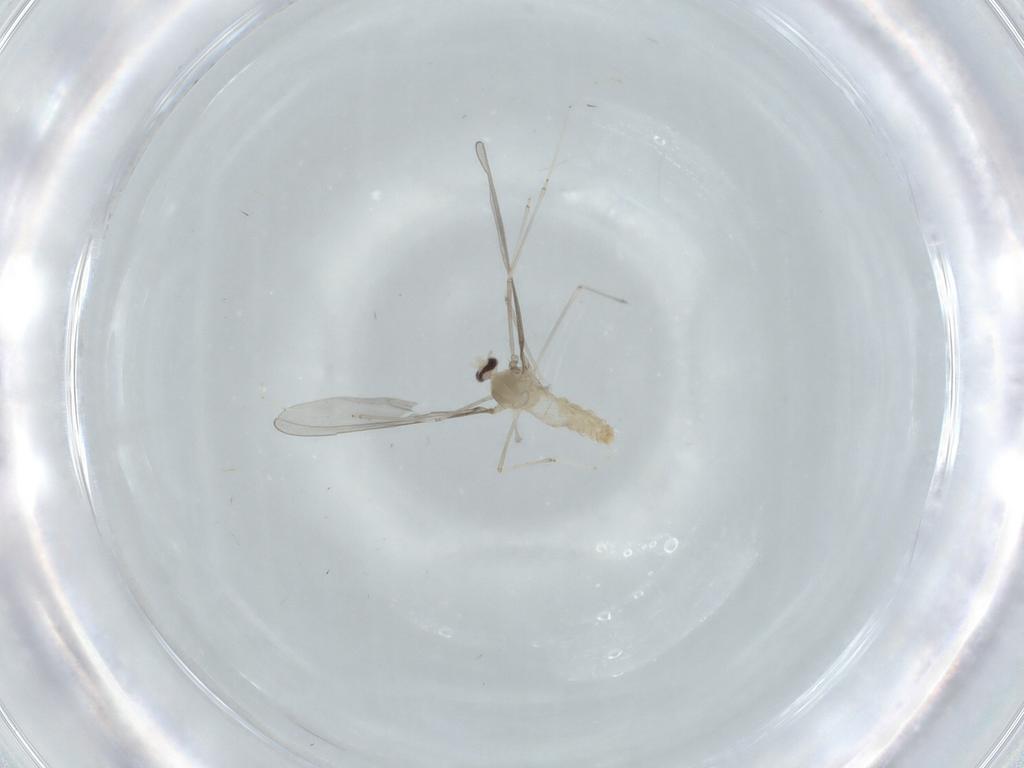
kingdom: Animalia
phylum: Arthropoda
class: Insecta
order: Diptera
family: Cecidomyiidae
